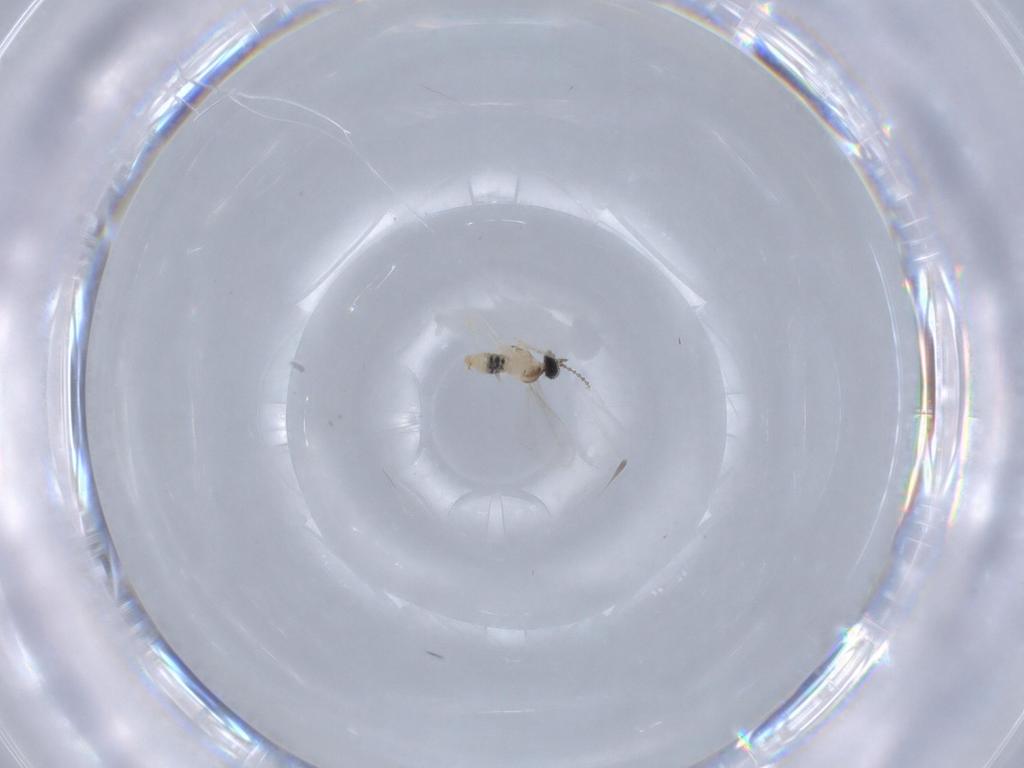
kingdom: Animalia
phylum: Arthropoda
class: Insecta
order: Diptera
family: Cecidomyiidae
